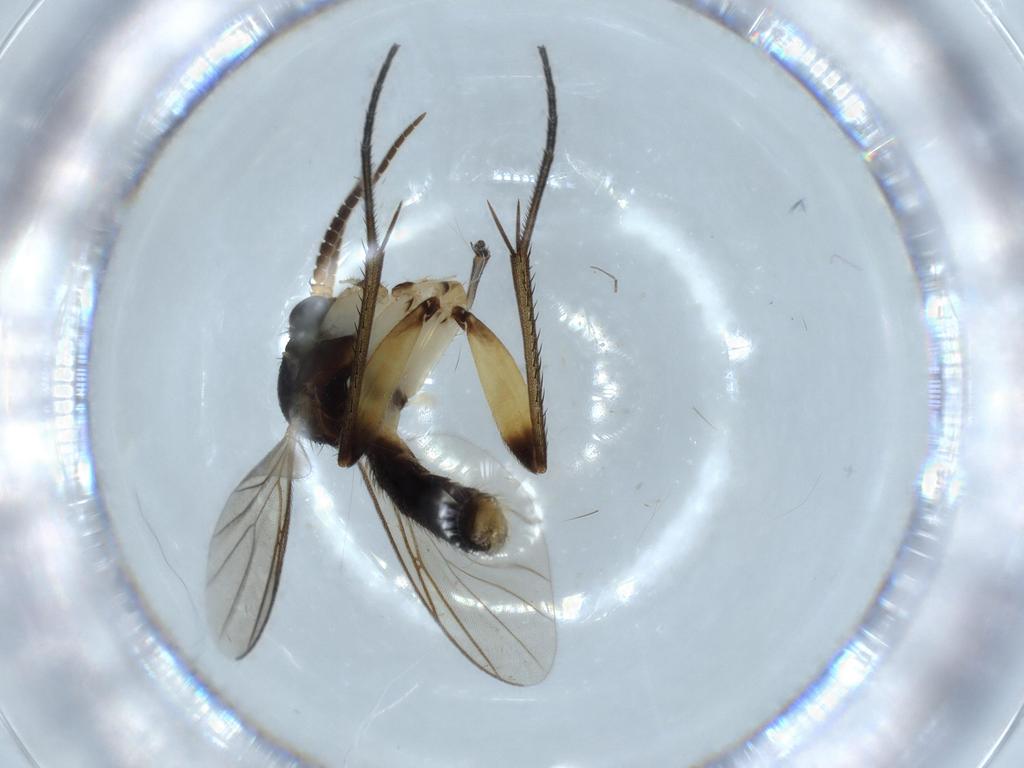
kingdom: Animalia
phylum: Arthropoda
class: Insecta
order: Diptera
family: Sciaridae
